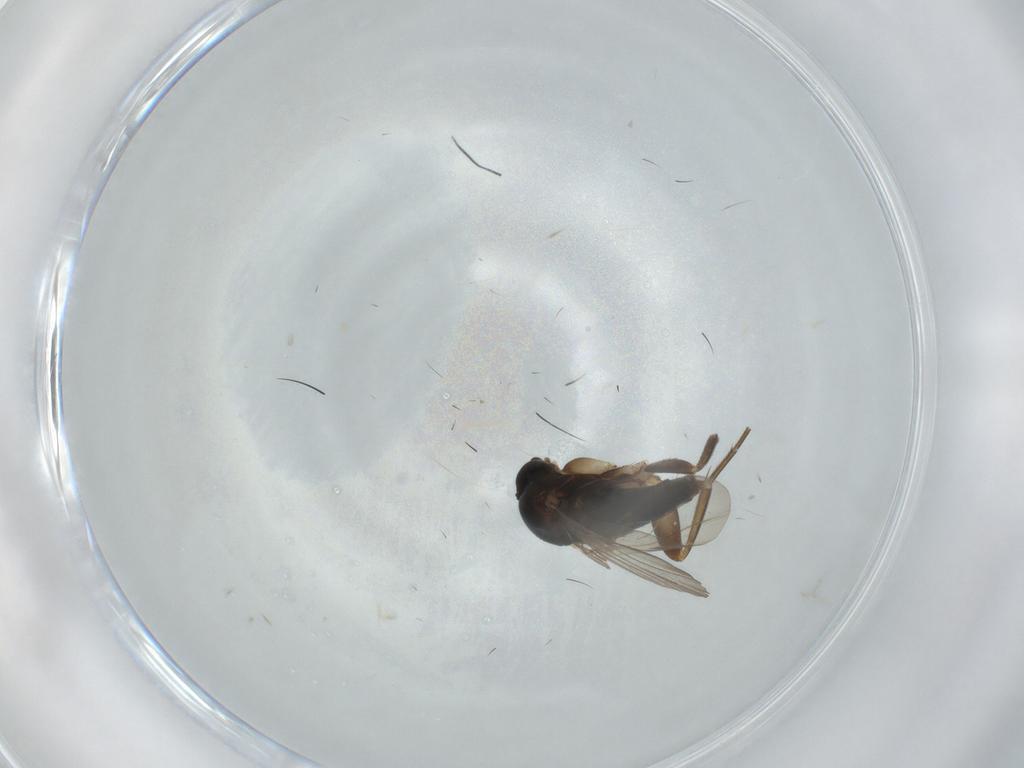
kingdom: Animalia
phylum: Arthropoda
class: Insecta
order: Diptera
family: Phoridae
